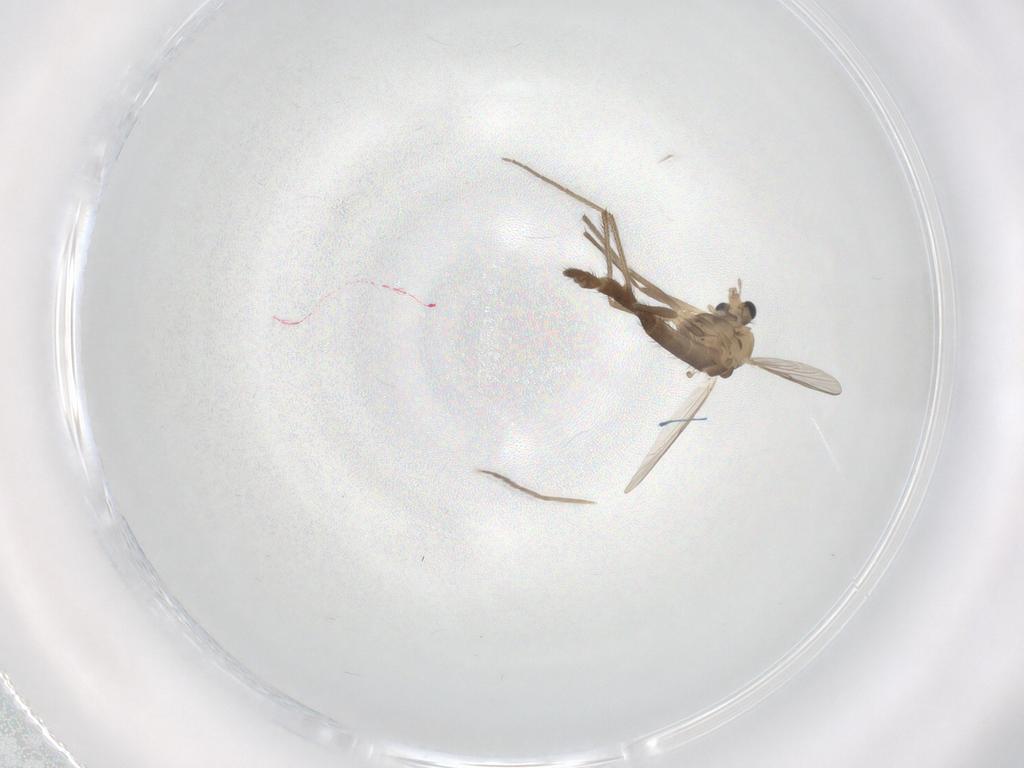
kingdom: Animalia
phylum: Arthropoda
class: Insecta
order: Diptera
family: Chironomidae
